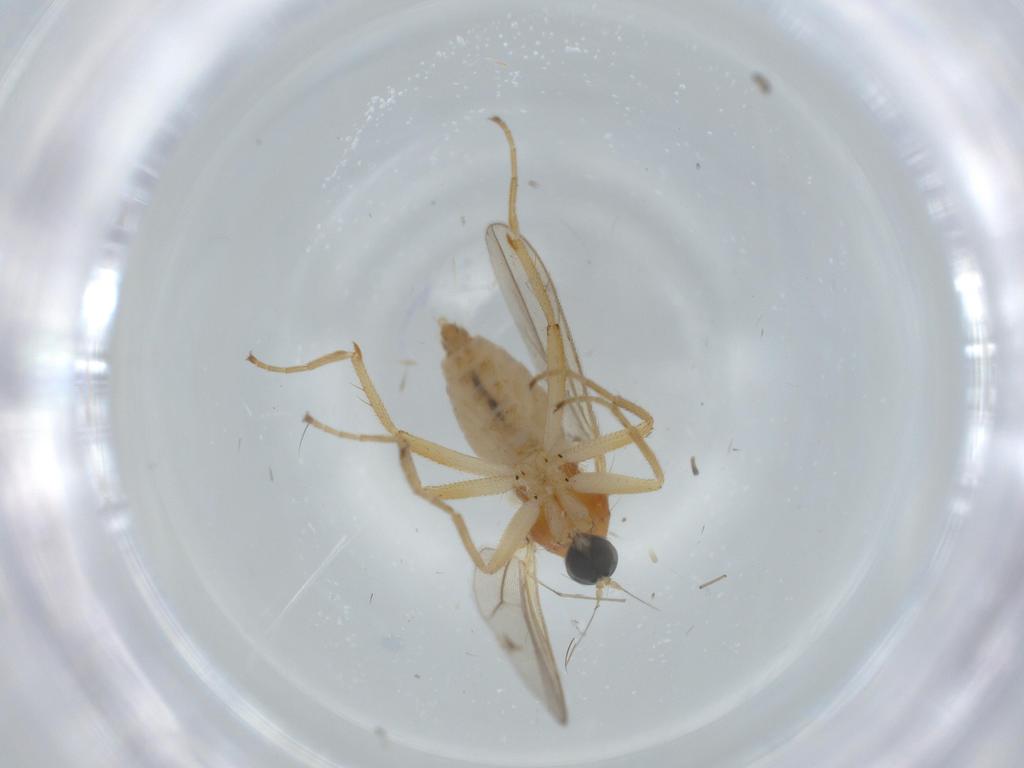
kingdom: Animalia
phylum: Arthropoda
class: Insecta
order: Diptera
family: Hybotidae
